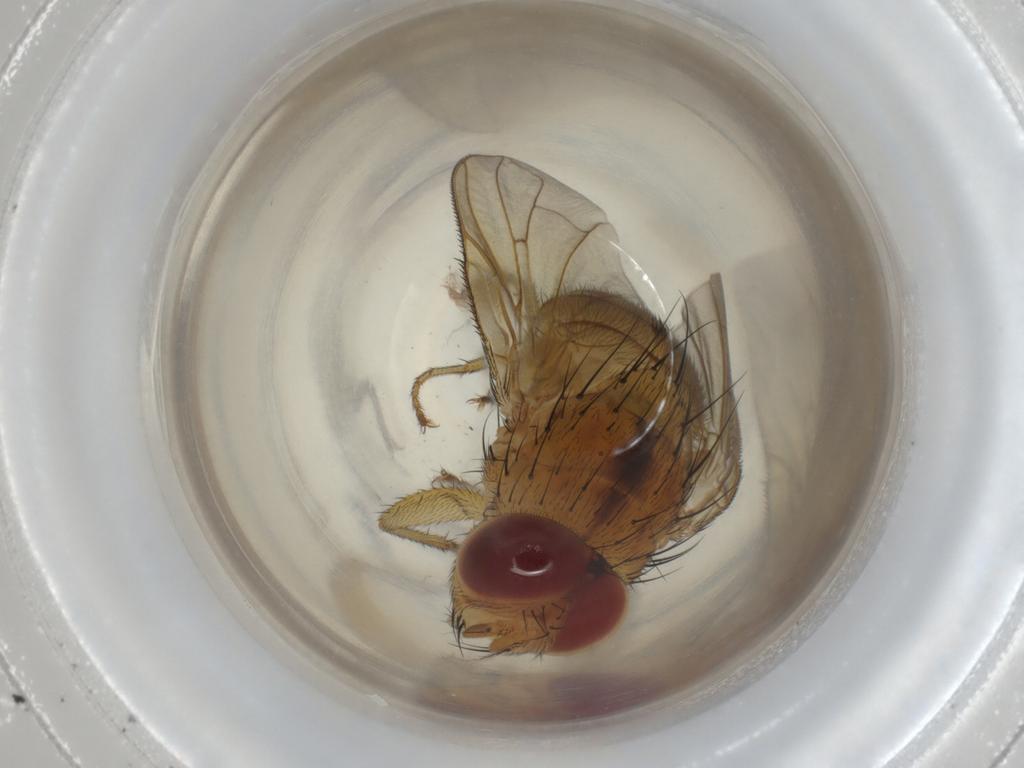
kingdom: Animalia
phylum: Arthropoda
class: Insecta
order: Diptera
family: Calliphoridae
